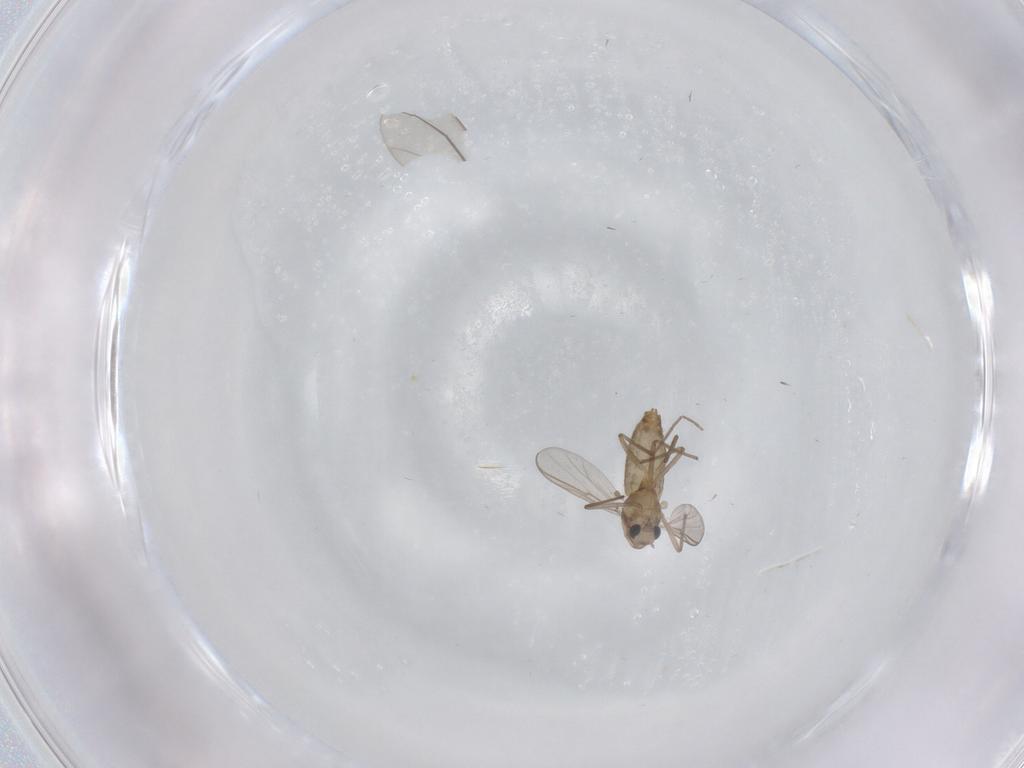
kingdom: Animalia
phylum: Arthropoda
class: Insecta
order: Diptera
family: Chironomidae
